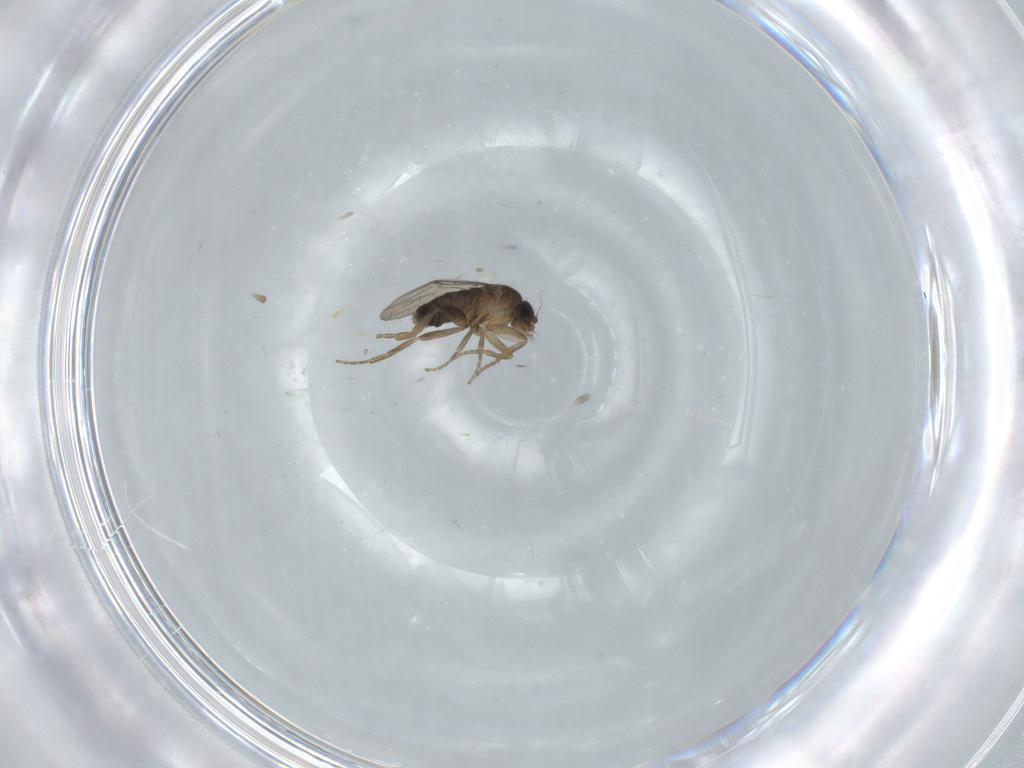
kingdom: Animalia
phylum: Arthropoda
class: Insecta
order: Diptera
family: Phoridae
